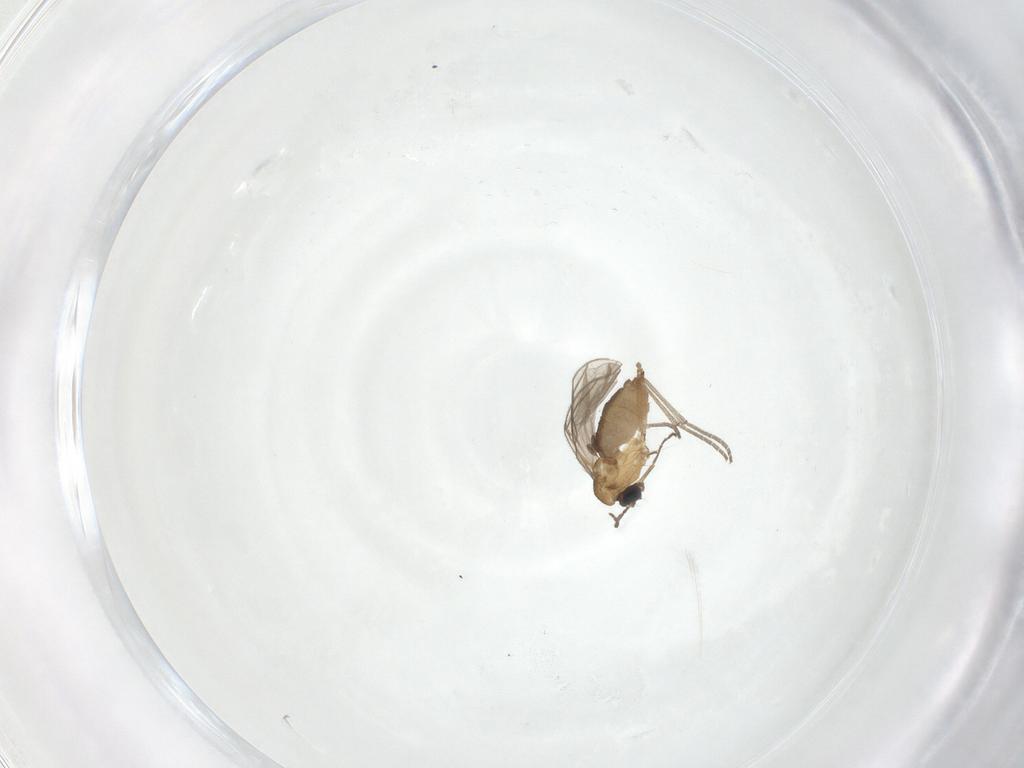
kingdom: Animalia
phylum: Arthropoda
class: Insecta
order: Diptera
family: Sciaridae
